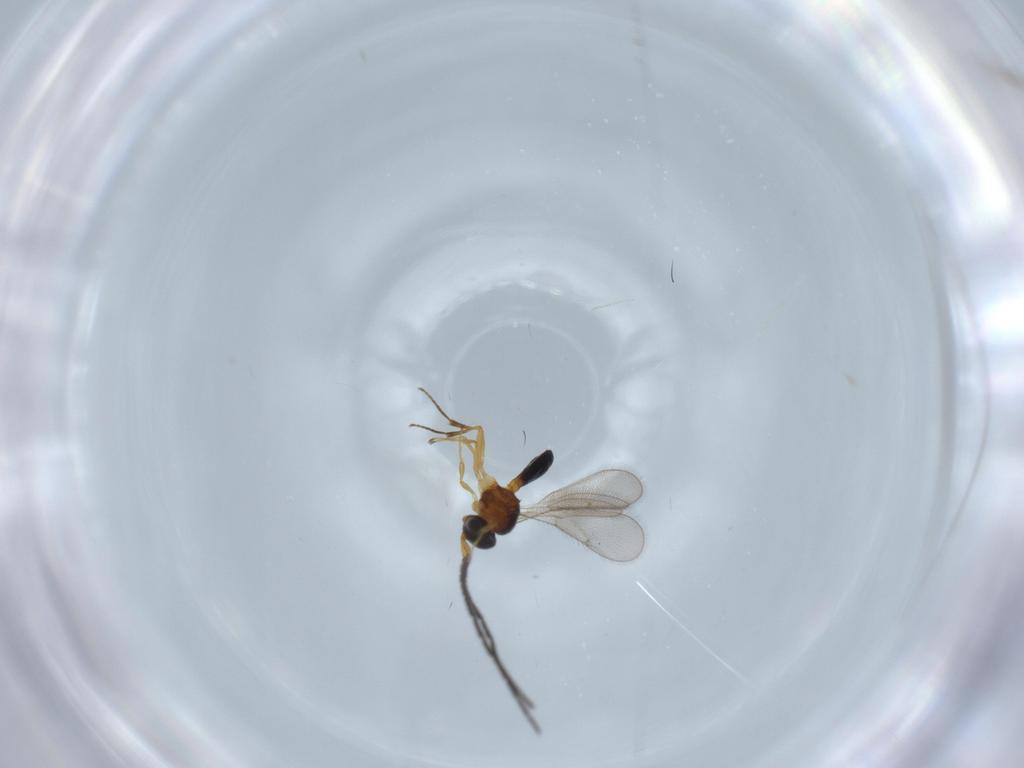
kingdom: Animalia
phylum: Arthropoda
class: Insecta
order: Hymenoptera
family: Scelionidae
